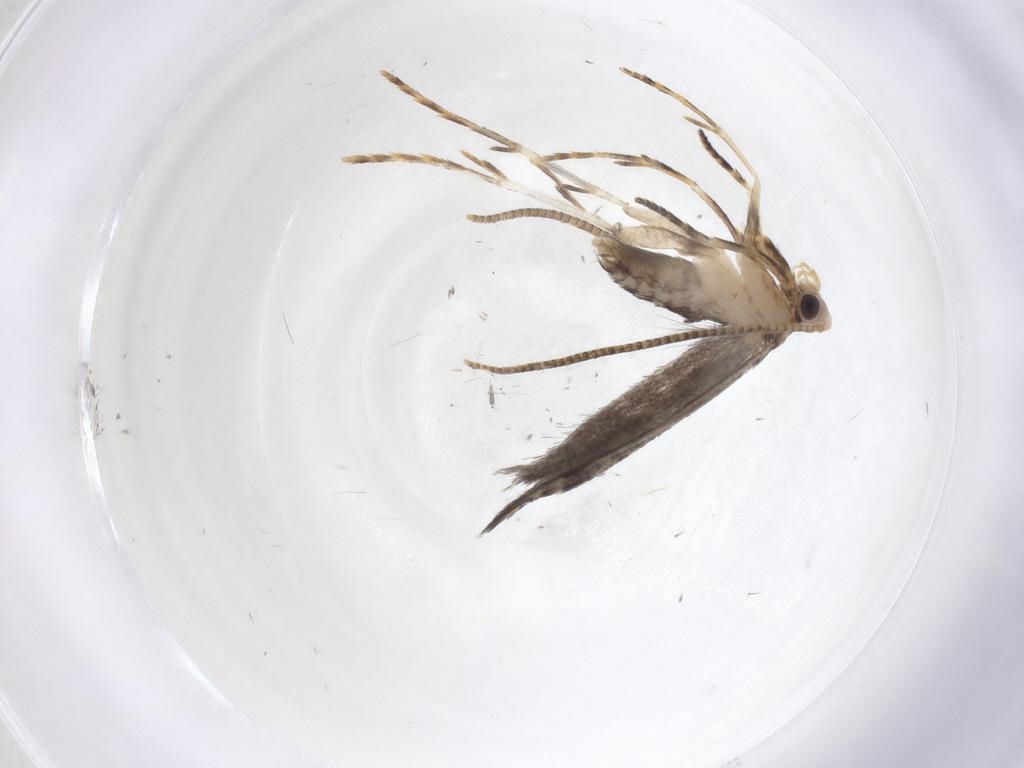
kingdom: Animalia
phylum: Arthropoda
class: Insecta
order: Lepidoptera
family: Tineidae
